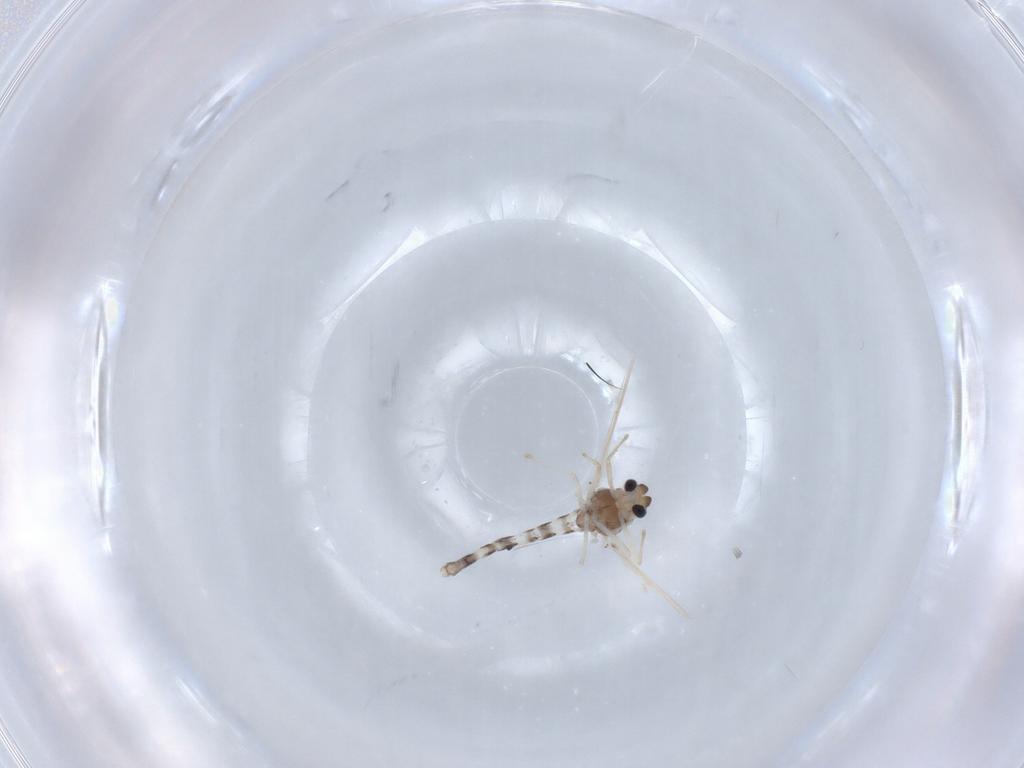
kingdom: Animalia
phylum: Arthropoda
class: Insecta
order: Diptera
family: Chironomidae
